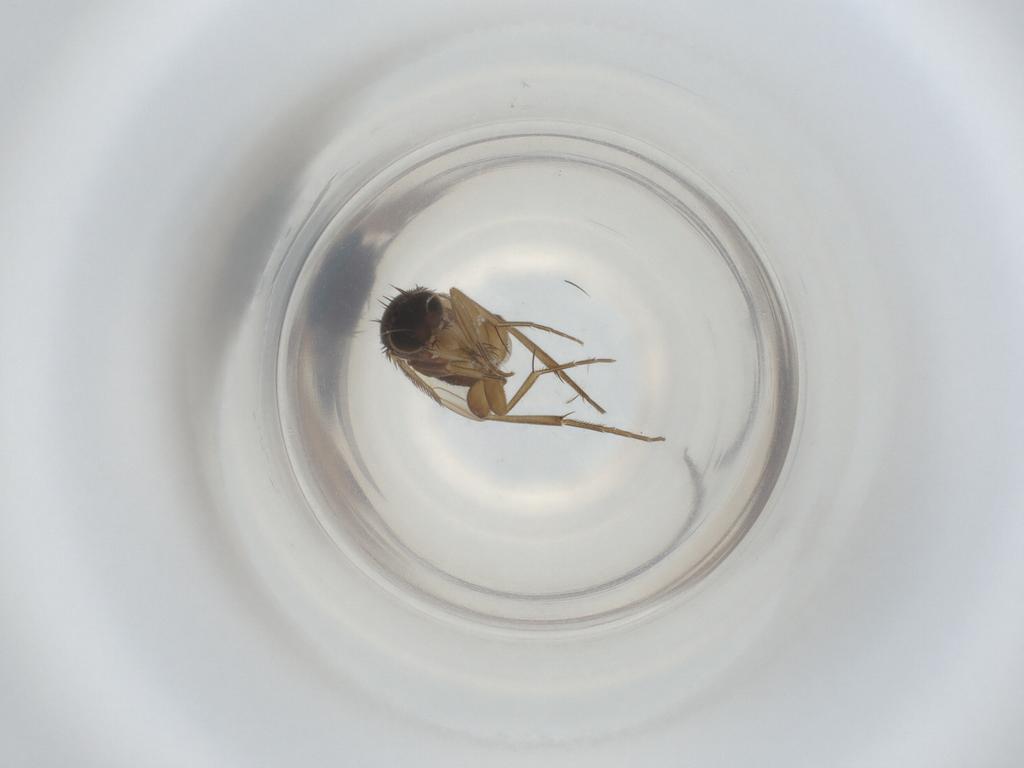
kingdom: Animalia
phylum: Arthropoda
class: Insecta
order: Diptera
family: Phoridae
